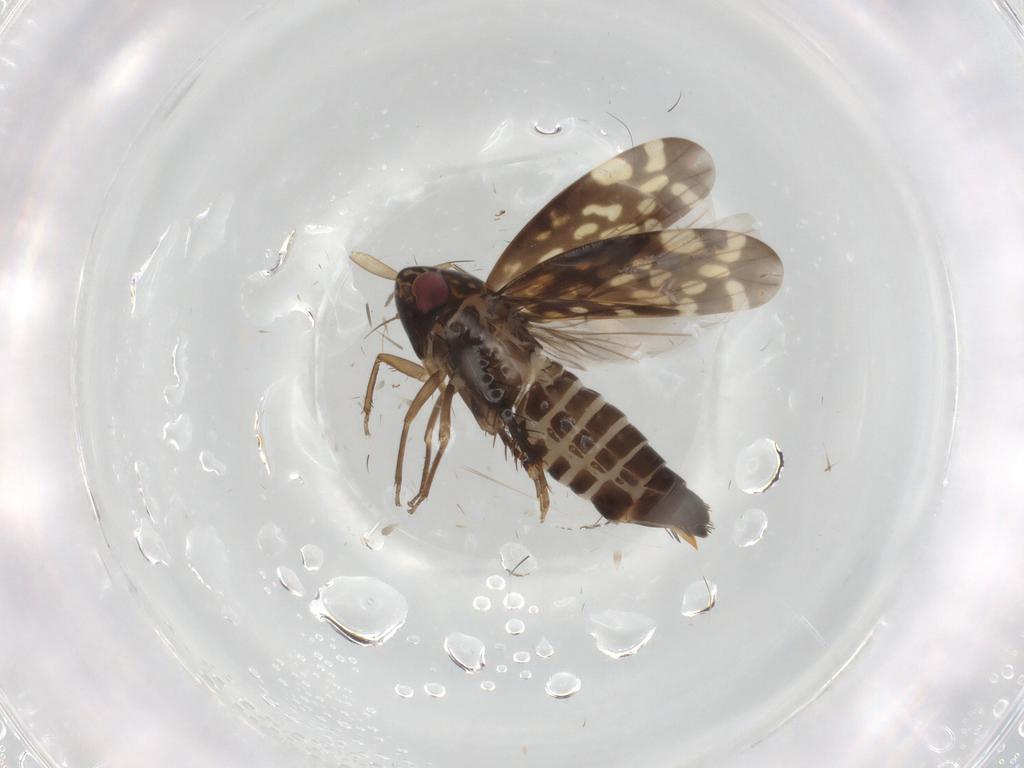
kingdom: Animalia
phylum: Arthropoda
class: Insecta
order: Hemiptera
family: Cicadellidae
